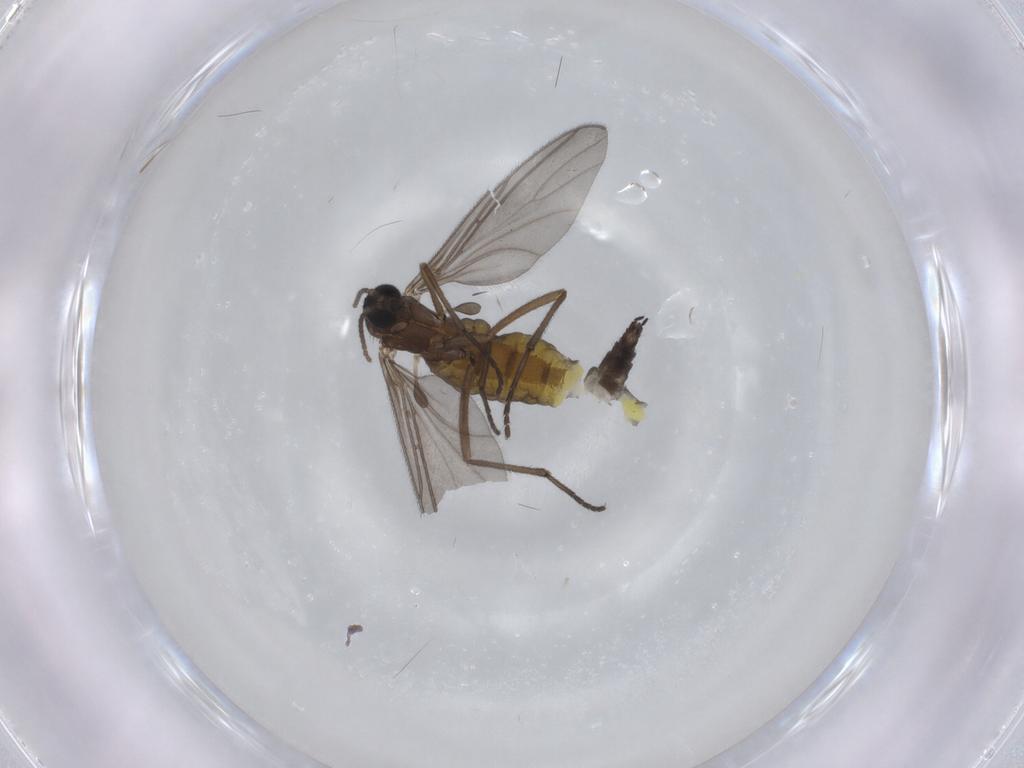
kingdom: Animalia
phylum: Arthropoda
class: Insecta
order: Diptera
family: Sciaridae
